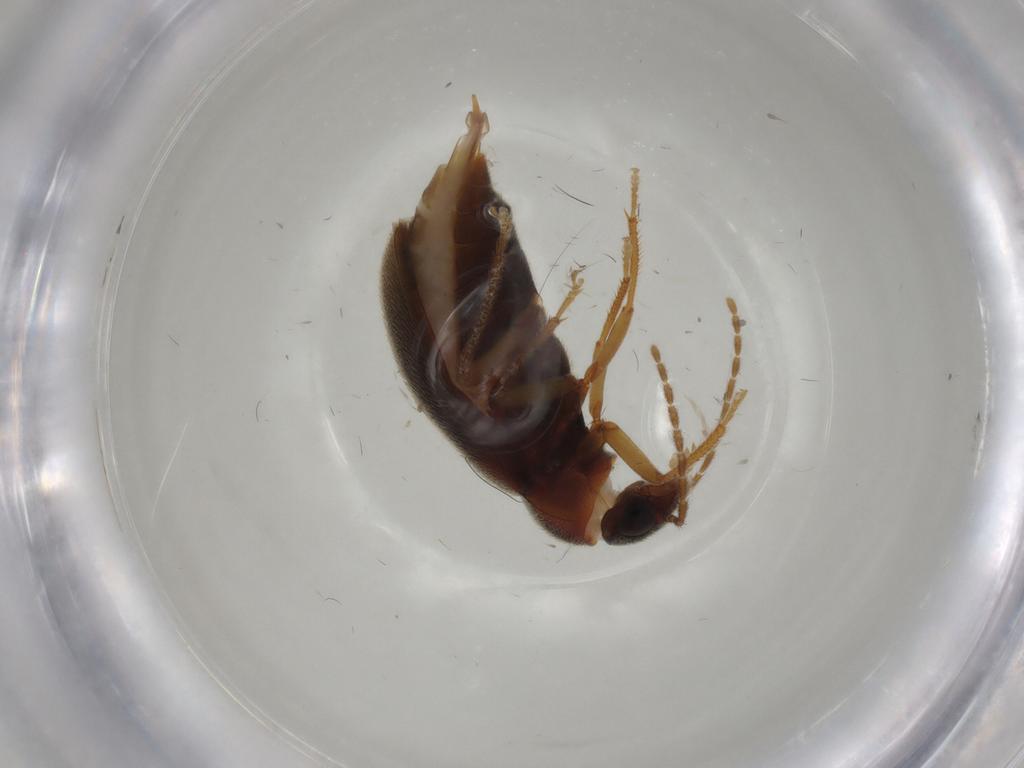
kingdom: Animalia
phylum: Arthropoda
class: Insecta
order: Coleoptera
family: Ptilodactylidae
